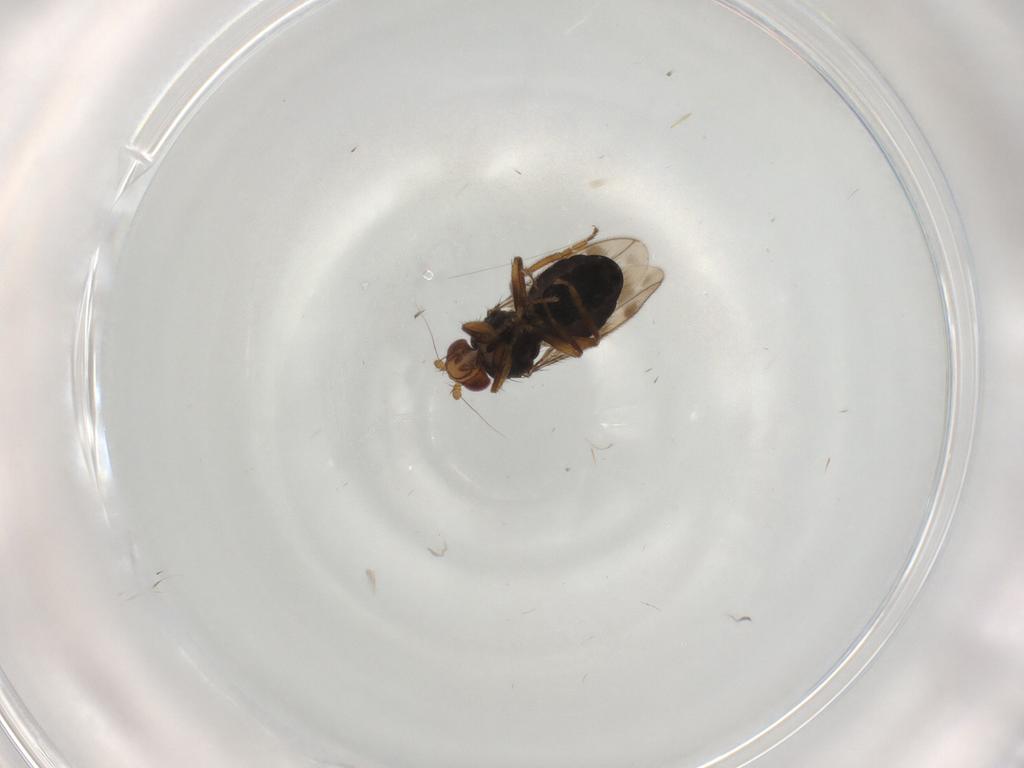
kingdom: Animalia
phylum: Arthropoda
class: Insecta
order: Diptera
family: Sphaeroceridae
